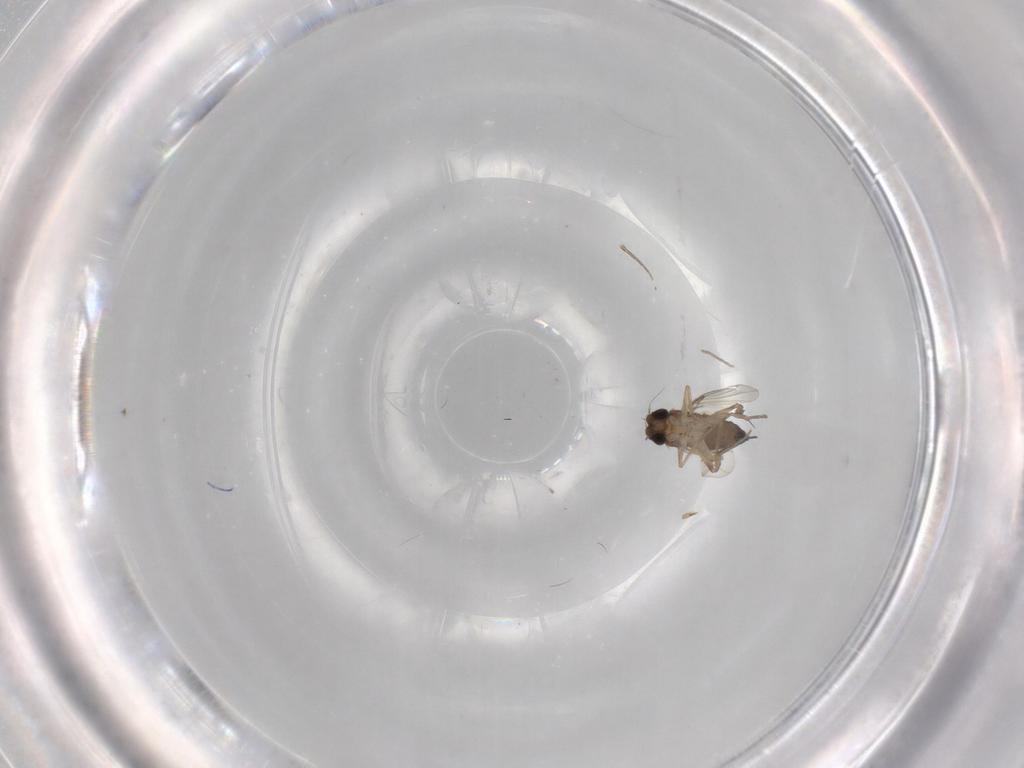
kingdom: Animalia
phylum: Arthropoda
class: Insecta
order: Diptera
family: Phoridae
